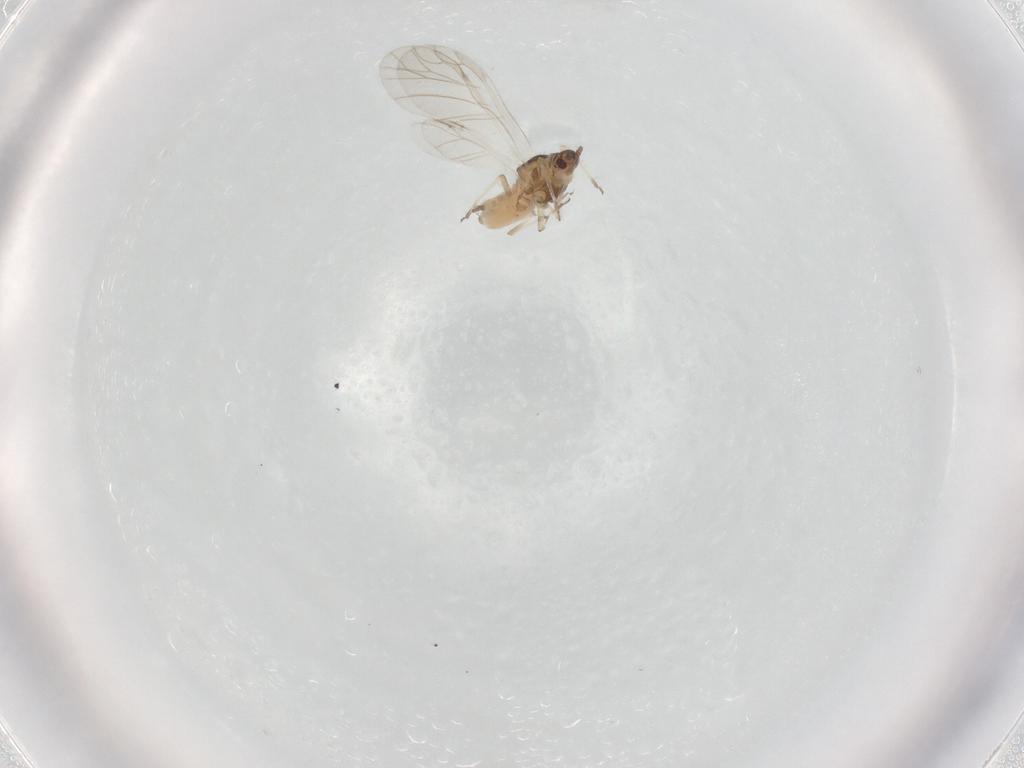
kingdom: Animalia
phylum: Arthropoda
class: Insecta
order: Hemiptera
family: Aphididae
